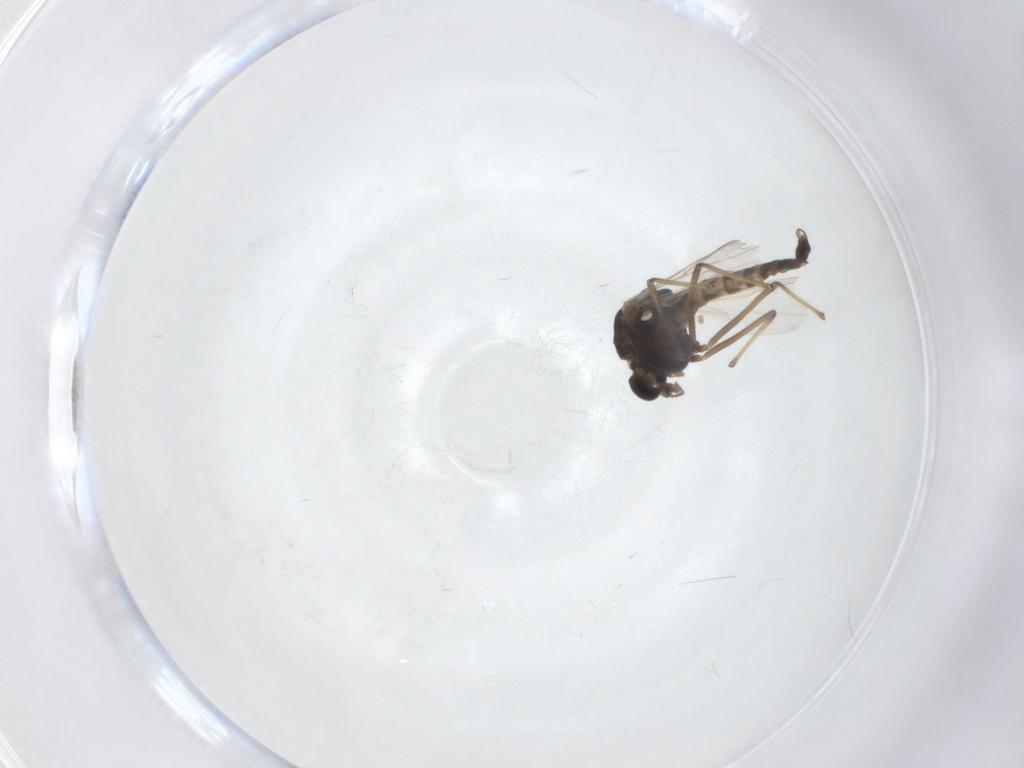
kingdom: Animalia
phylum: Arthropoda
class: Insecta
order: Diptera
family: Chironomidae
